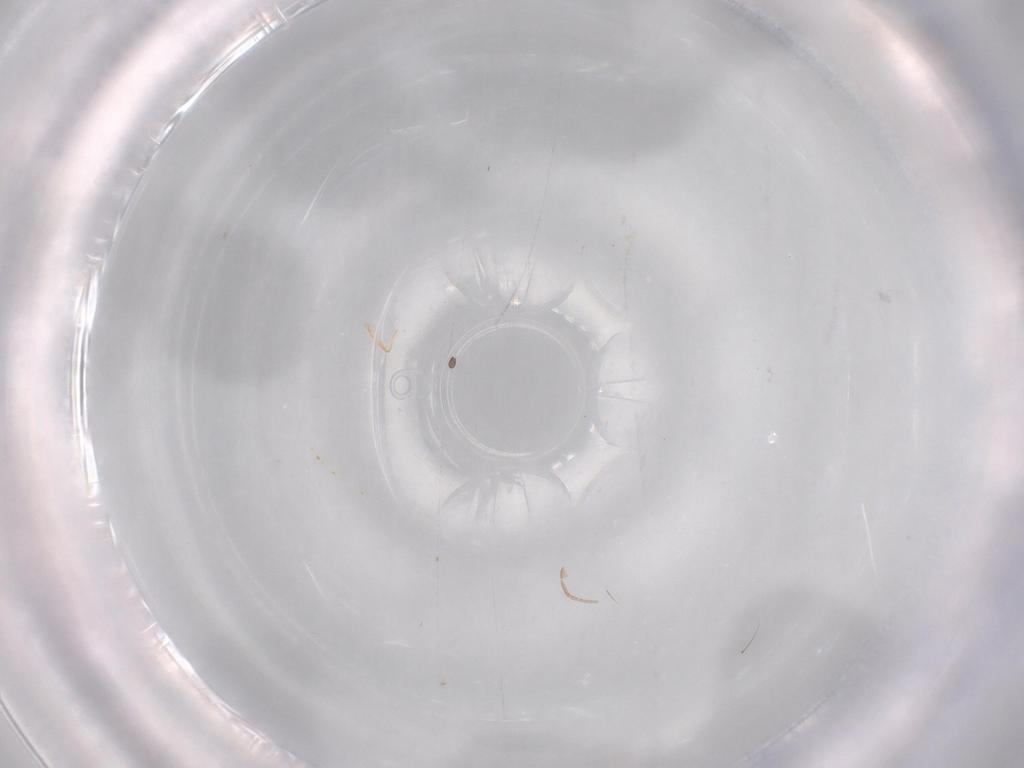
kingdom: Animalia
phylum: Arthropoda
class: Insecta
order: Diptera
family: Phoridae
